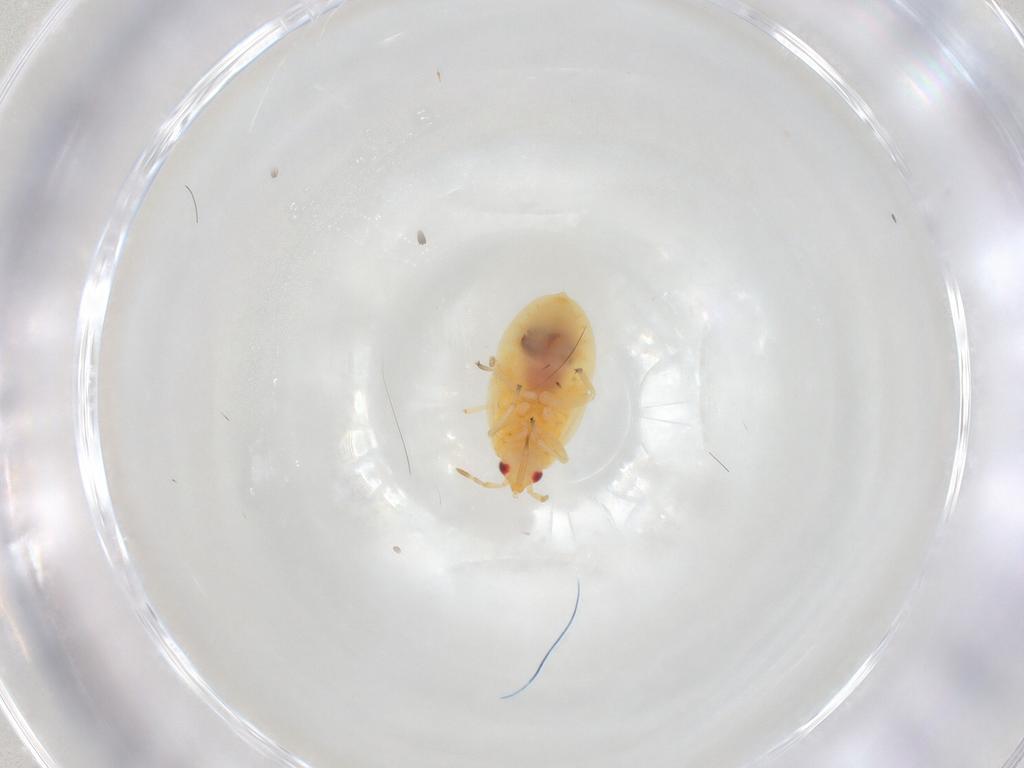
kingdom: Animalia
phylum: Arthropoda
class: Insecta
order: Hemiptera
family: Anthocoridae
